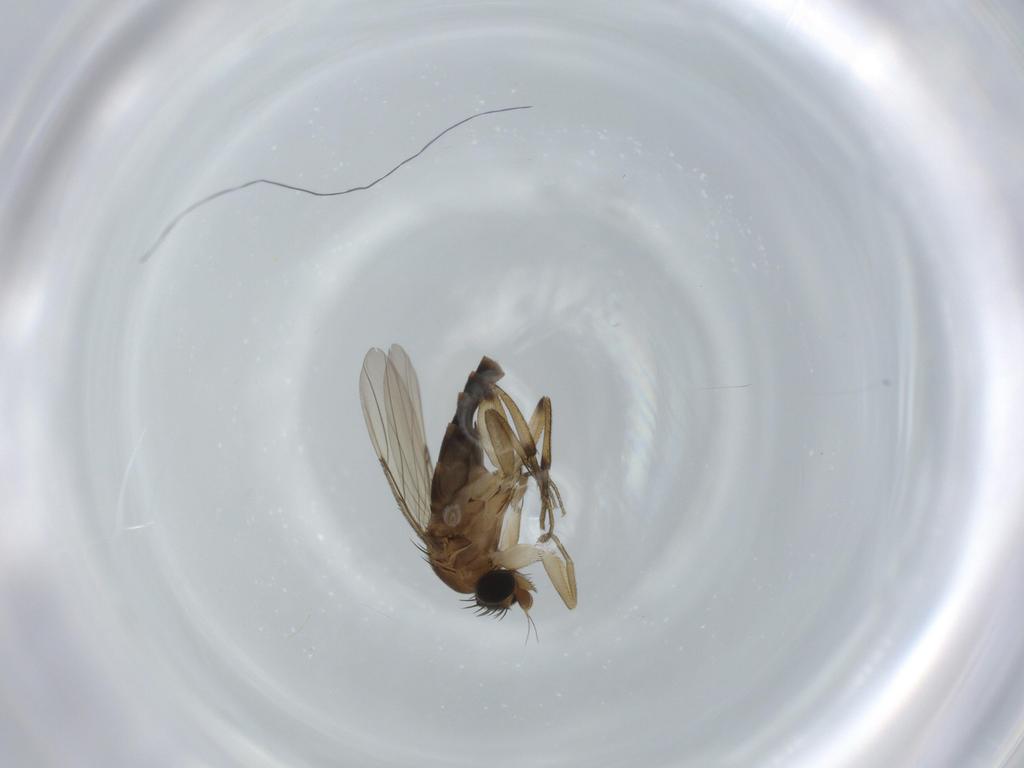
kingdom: Animalia
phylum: Arthropoda
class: Insecta
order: Diptera
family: Phoridae
